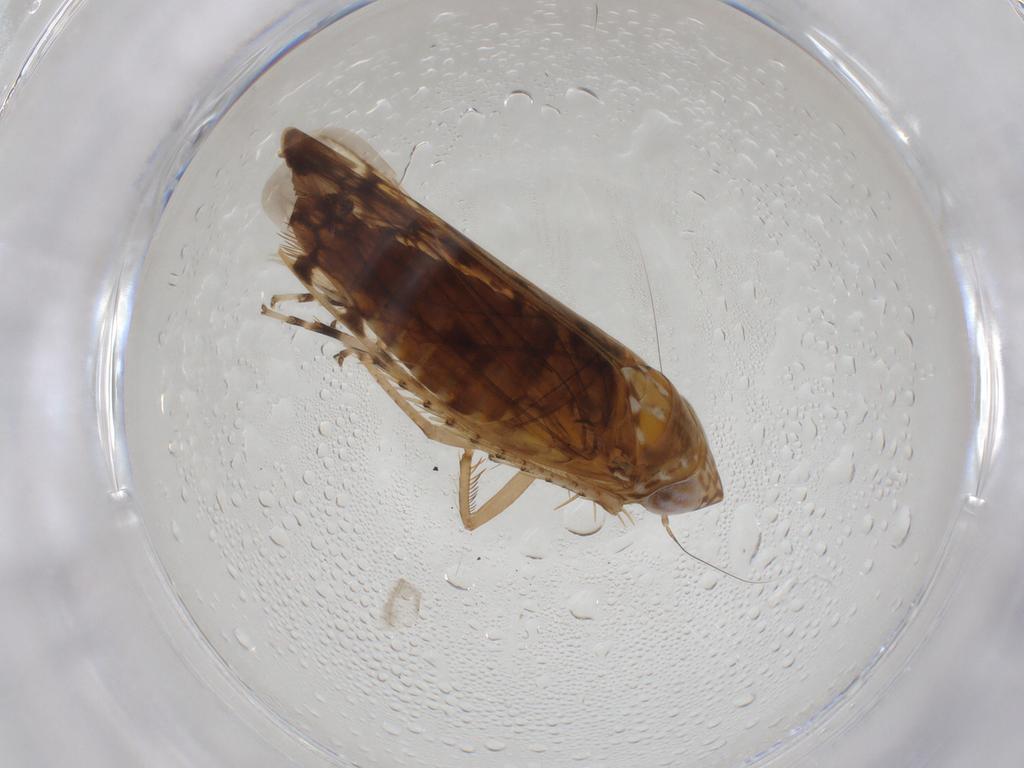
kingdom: Animalia
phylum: Arthropoda
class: Insecta
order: Hemiptera
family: Cicadellidae
